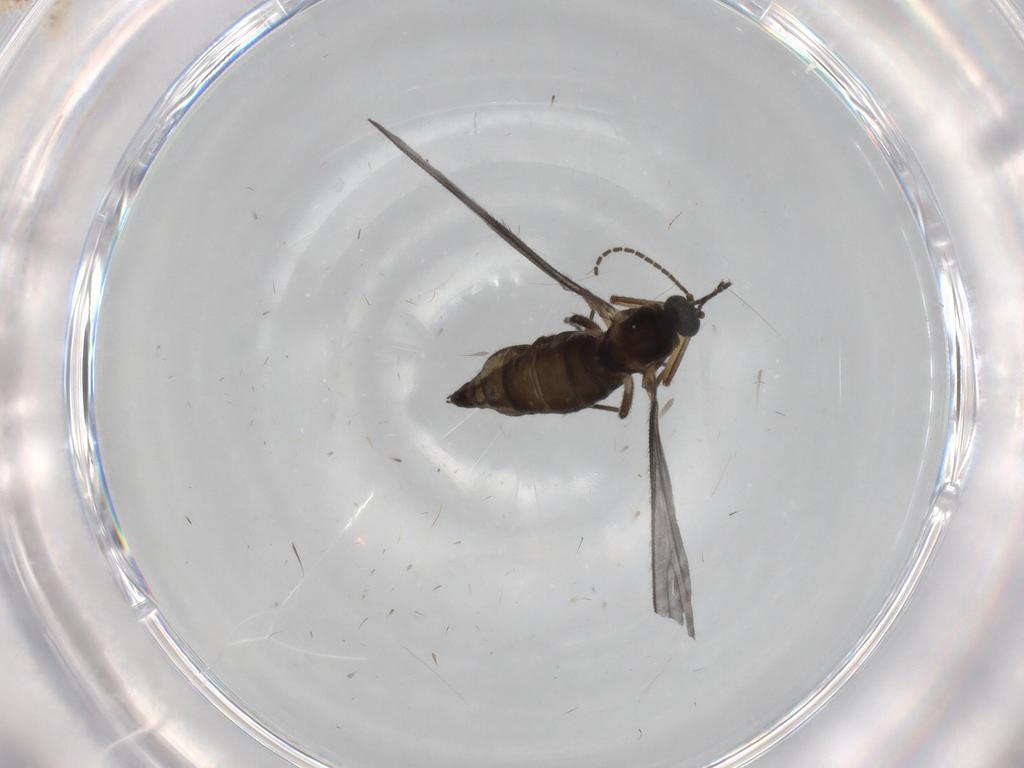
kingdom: Animalia
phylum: Arthropoda
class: Insecta
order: Diptera
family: Sciaridae
